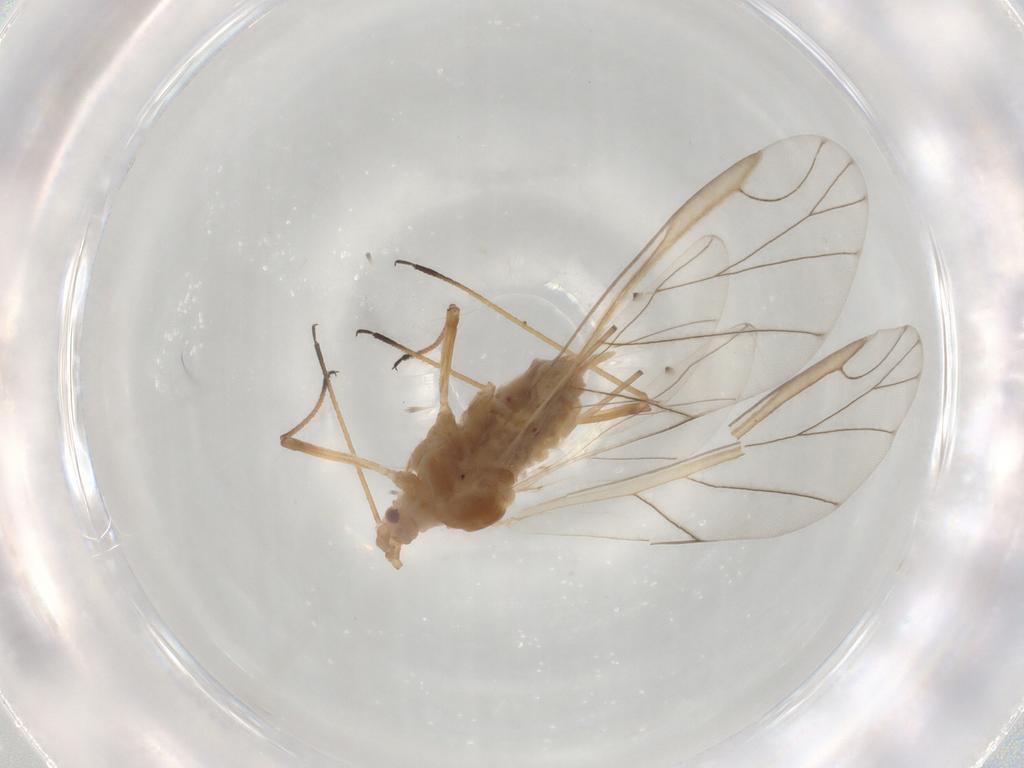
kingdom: Animalia
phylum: Arthropoda
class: Insecta
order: Hemiptera
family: Aphididae
